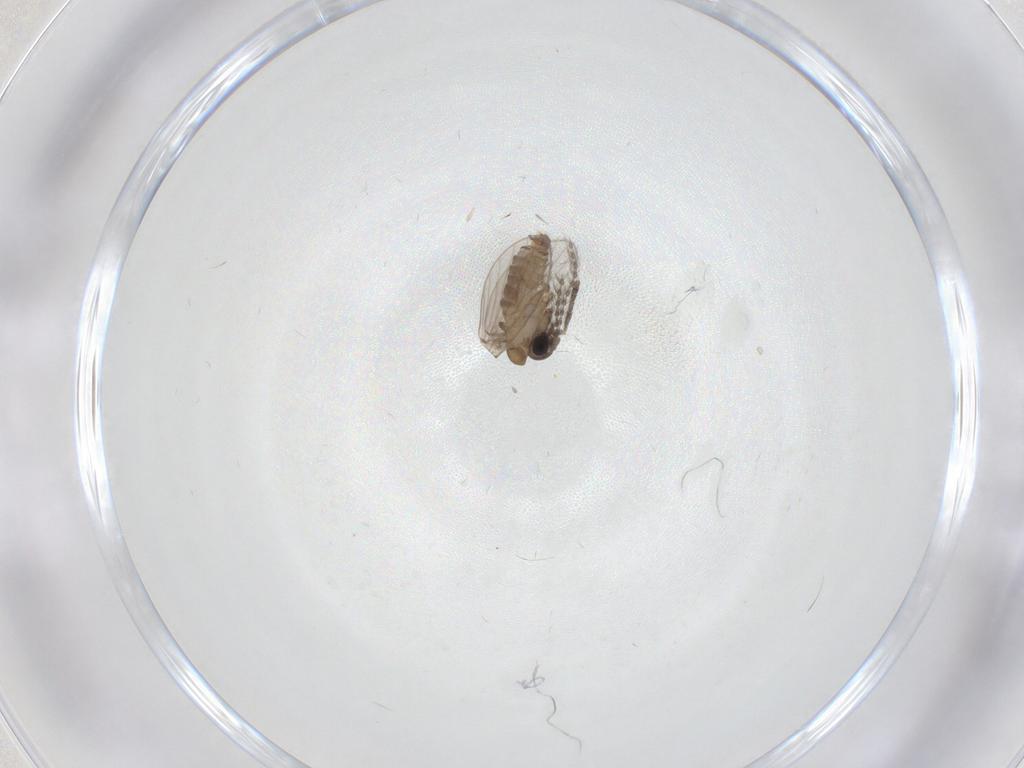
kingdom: Animalia
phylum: Arthropoda
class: Insecta
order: Diptera
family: Psychodidae
